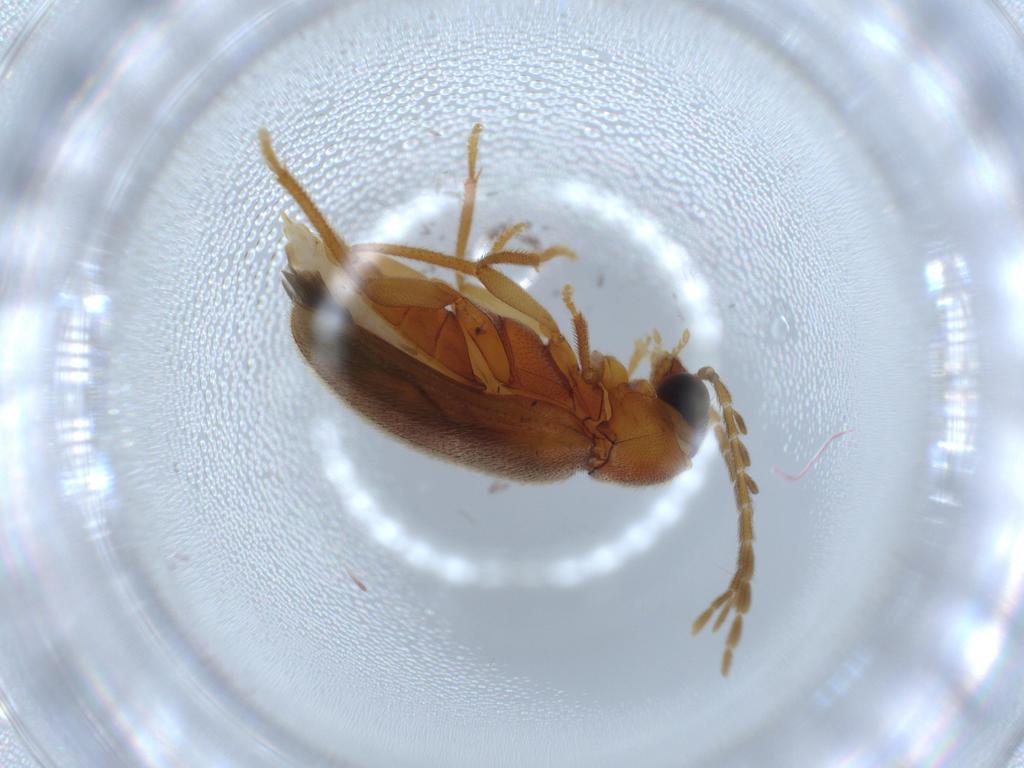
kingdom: Animalia
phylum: Arthropoda
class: Insecta
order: Coleoptera
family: Ptilodactylidae
